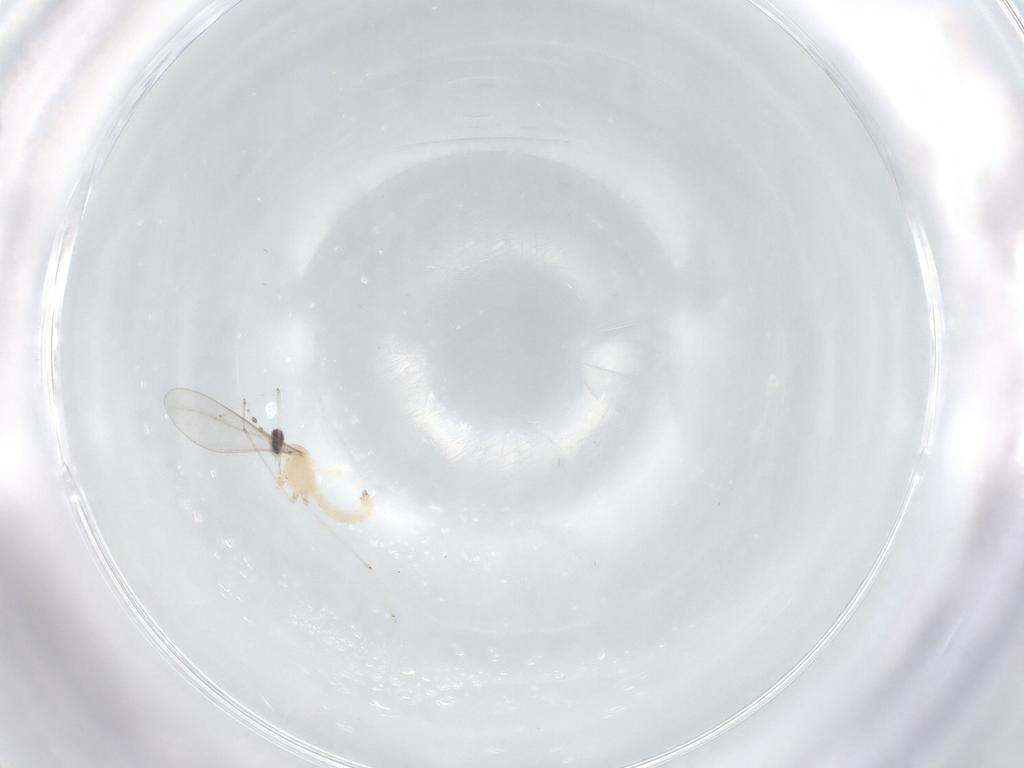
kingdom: Animalia
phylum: Arthropoda
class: Insecta
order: Diptera
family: Cecidomyiidae
